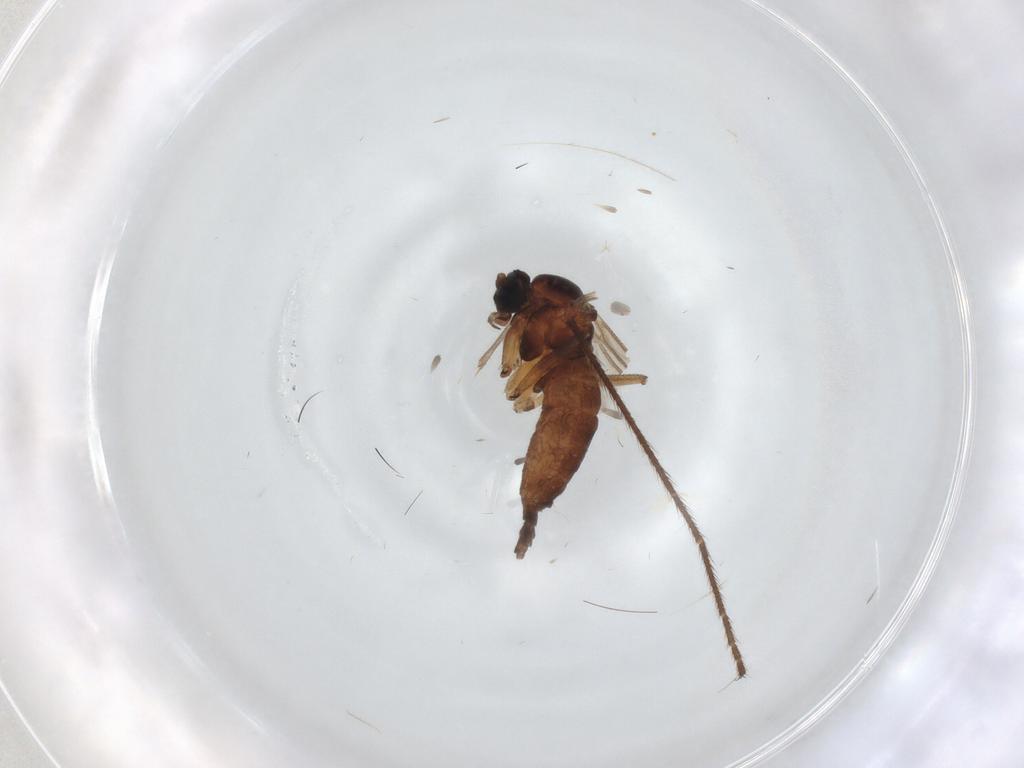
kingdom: Animalia
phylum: Arthropoda
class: Insecta
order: Diptera
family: Sciaridae
